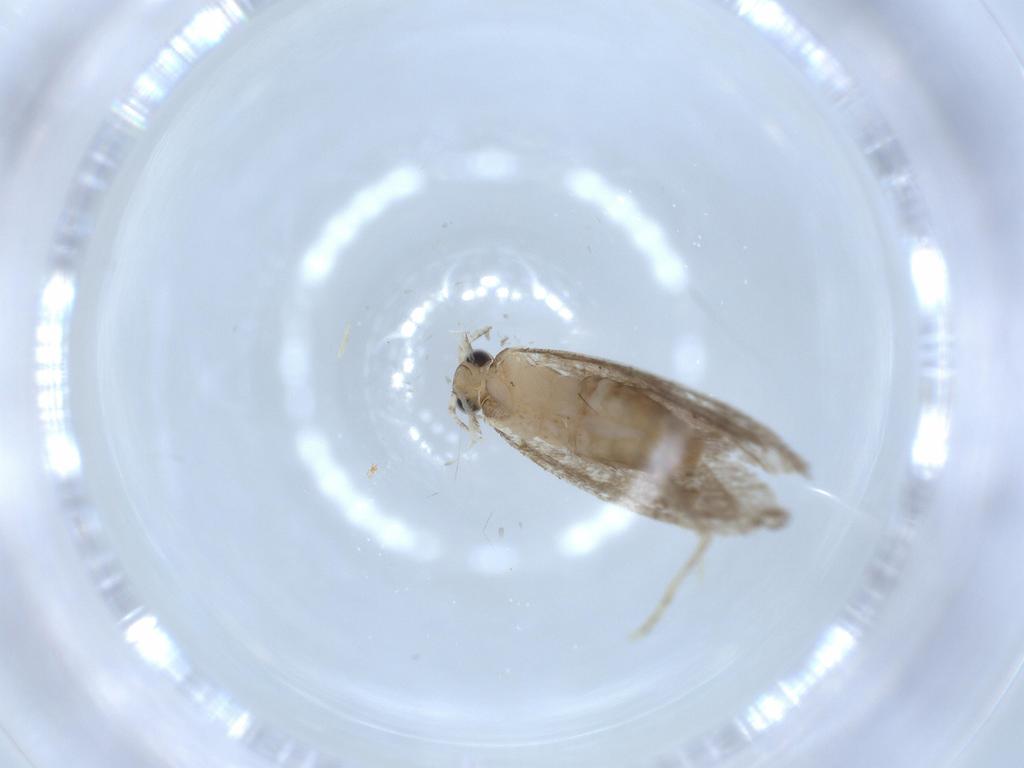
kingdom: Animalia
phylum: Arthropoda
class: Insecta
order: Lepidoptera
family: Tineidae
